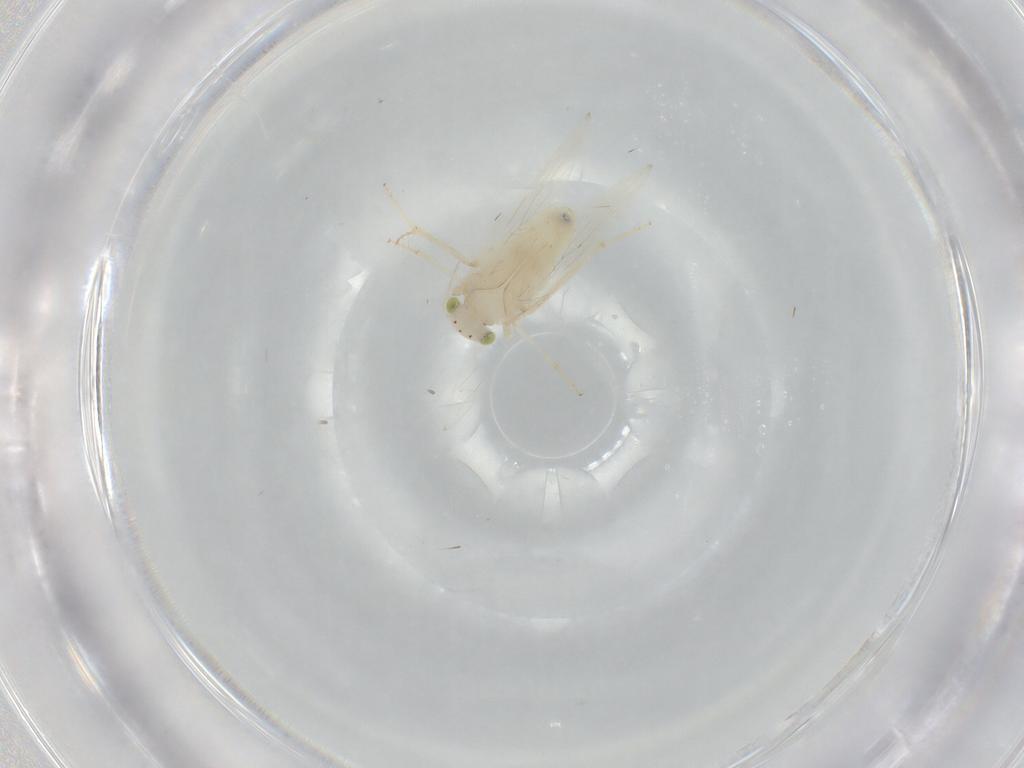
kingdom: Animalia
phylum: Arthropoda
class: Insecta
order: Psocodea
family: Lepidopsocidae
